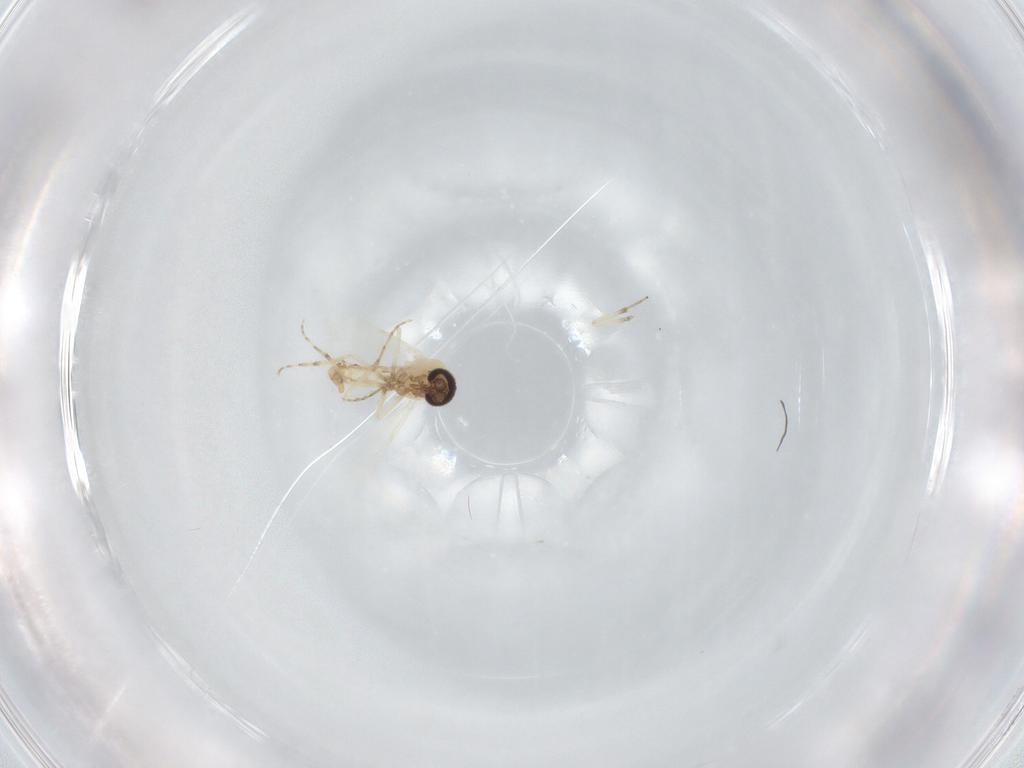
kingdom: Animalia
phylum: Arthropoda
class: Insecta
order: Diptera
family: Ceratopogonidae
